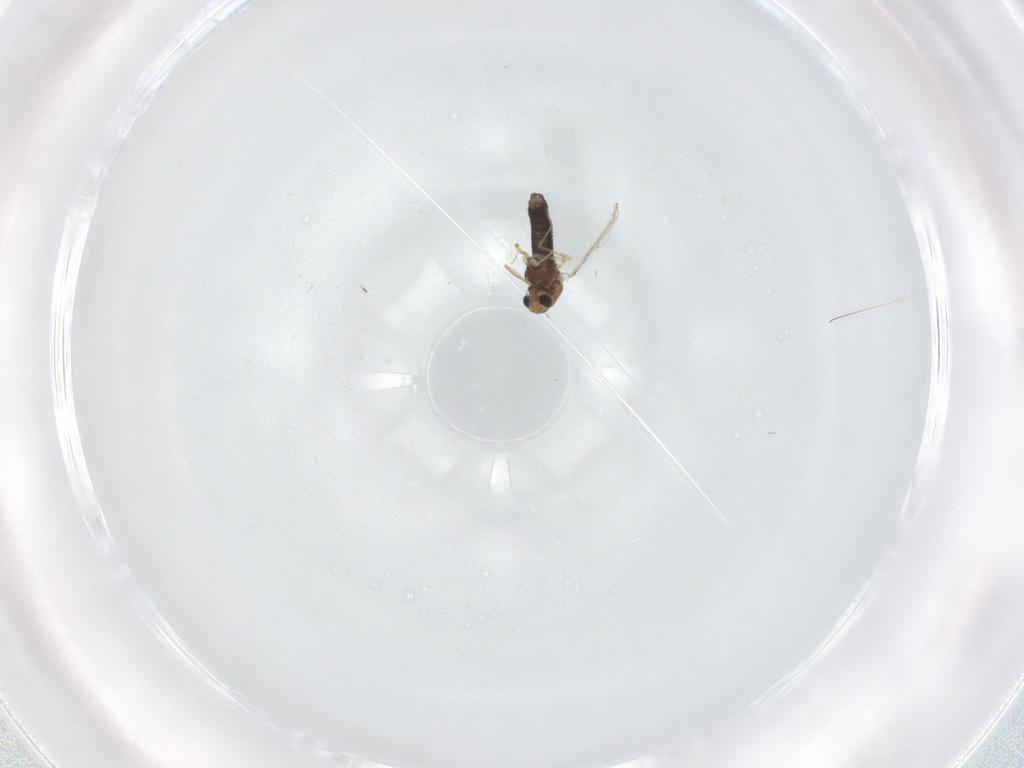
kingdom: Animalia
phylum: Arthropoda
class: Insecta
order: Diptera
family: Chironomidae
